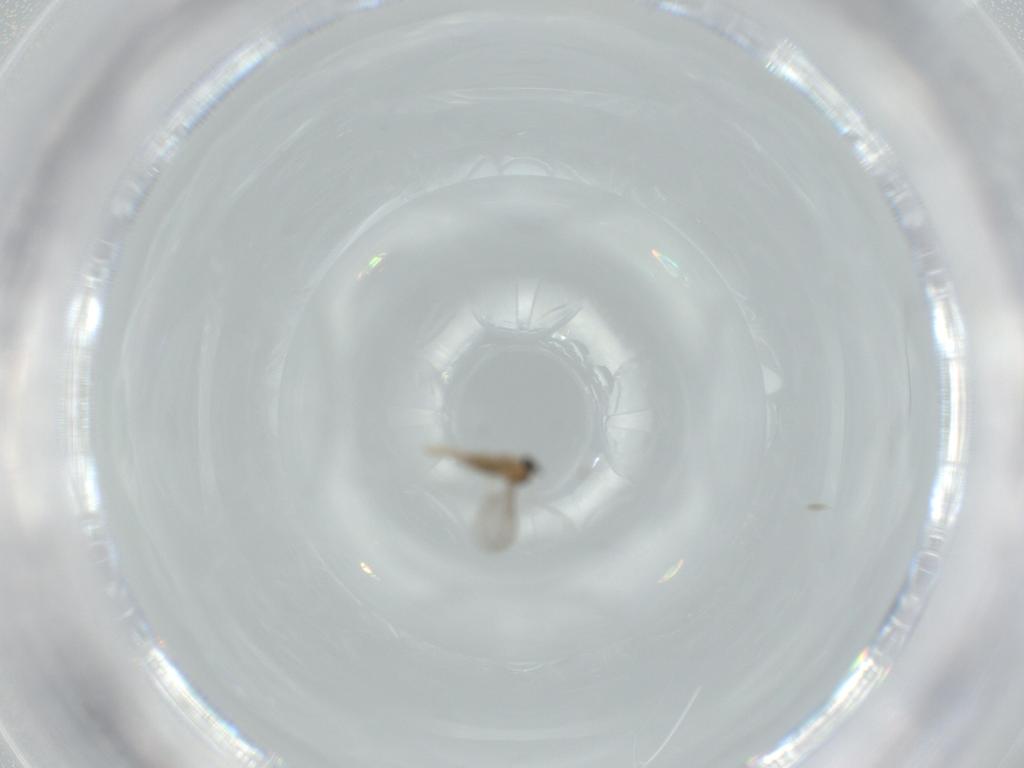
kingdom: Animalia
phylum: Arthropoda
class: Insecta
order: Diptera
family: Cecidomyiidae
